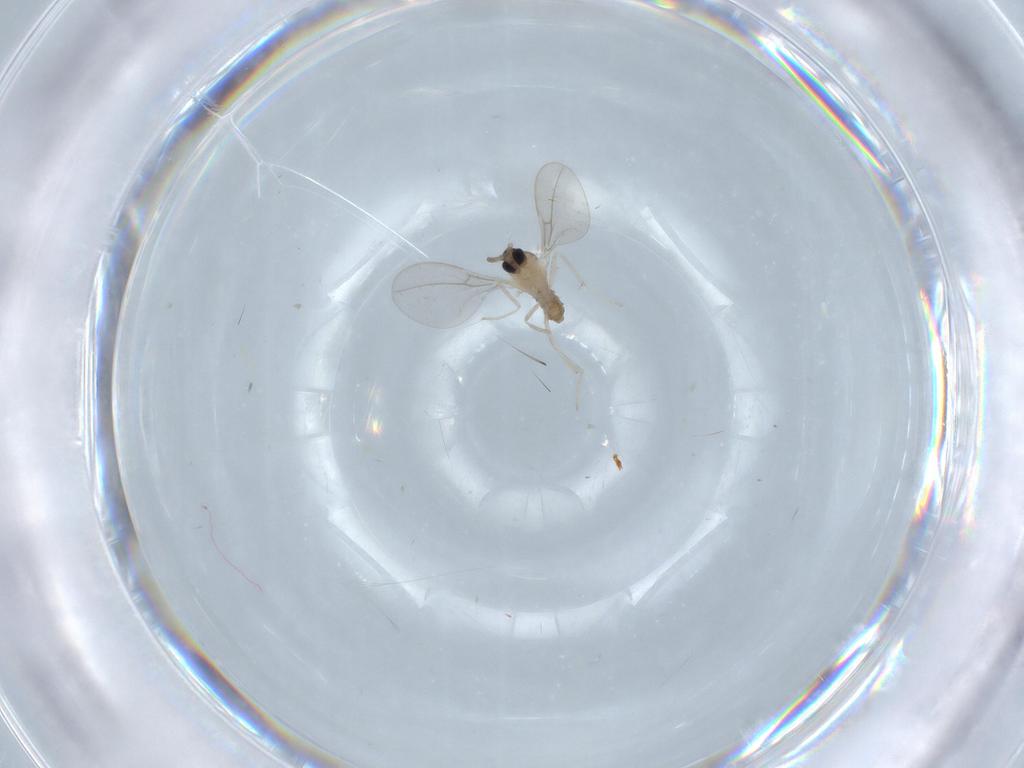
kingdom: Animalia
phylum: Arthropoda
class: Insecta
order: Diptera
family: Cecidomyiidae
